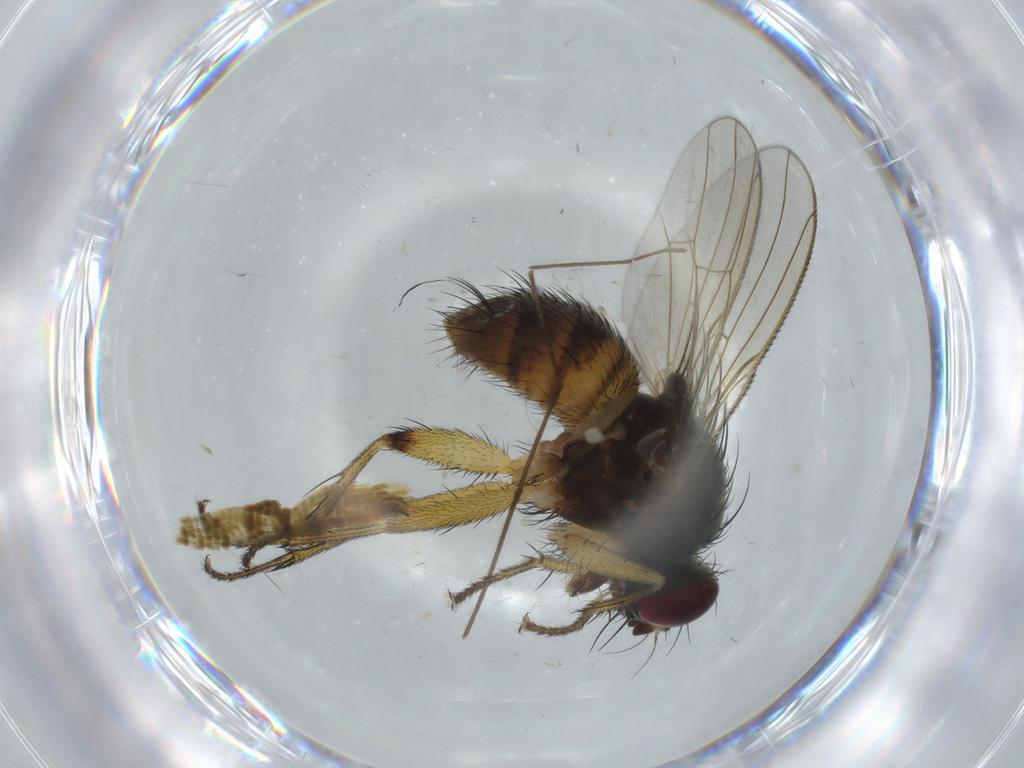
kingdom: Animalia
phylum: Arthropoda
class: Insecta
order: Diptera
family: Muscidae
